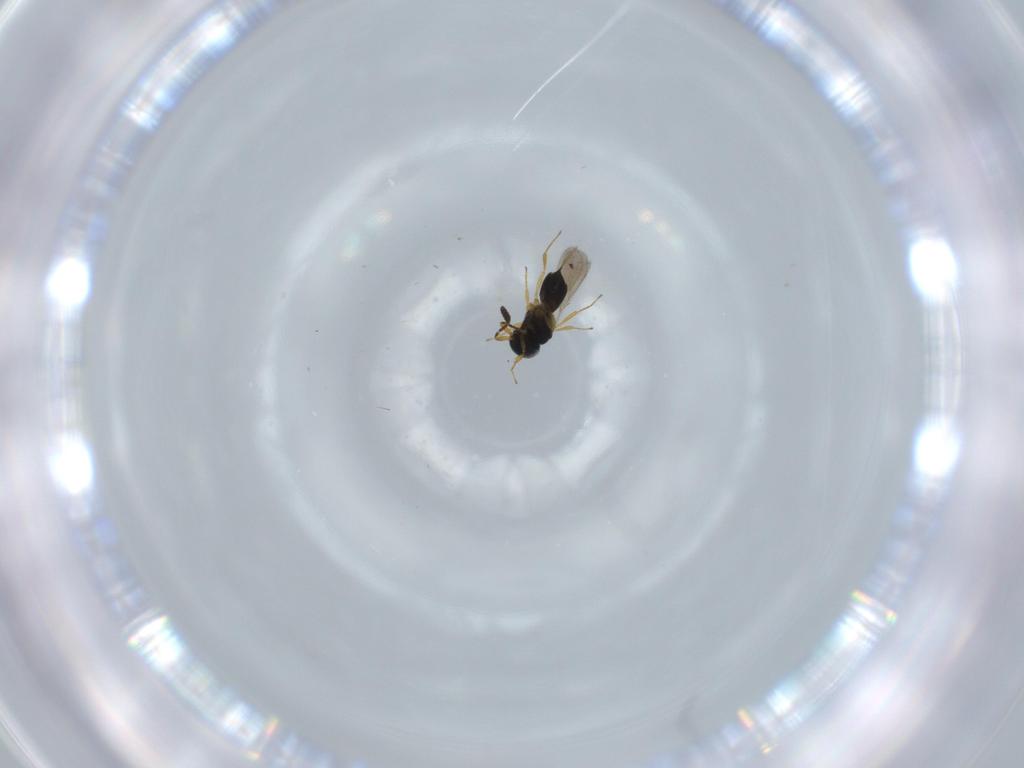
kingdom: Animalia
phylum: Arthropoda
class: Insecta
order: Hymenoptera
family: Scelionidae
